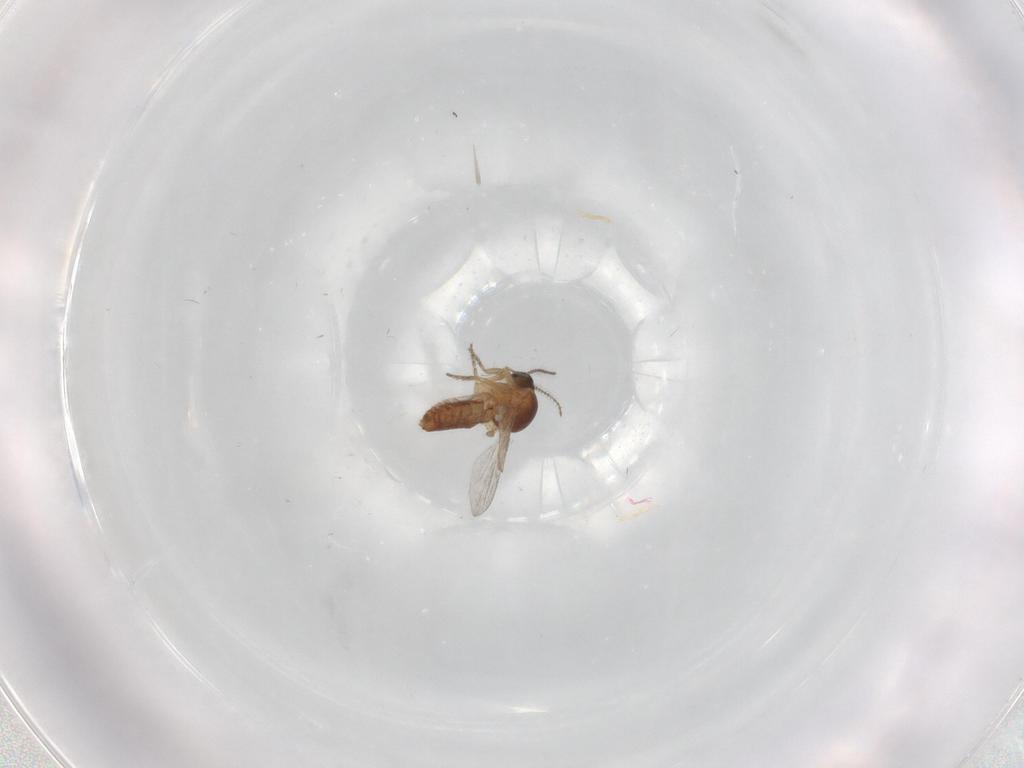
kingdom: Animalia
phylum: Arthropoda
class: Insecta
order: Diptera
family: Ceratopogonidae
